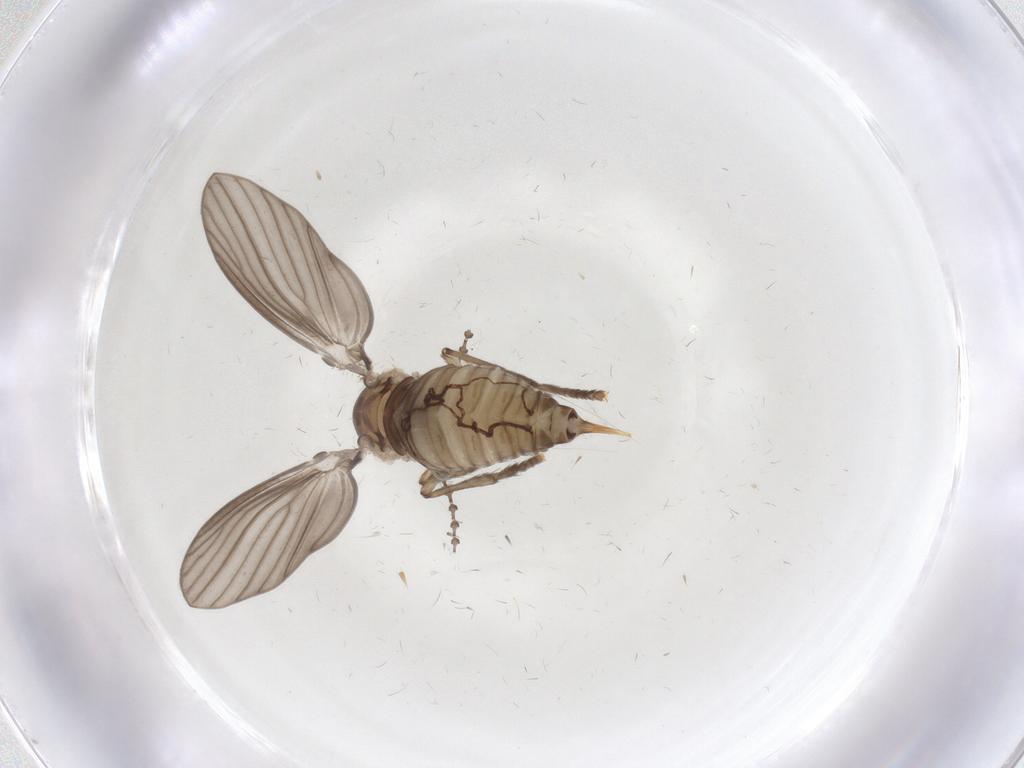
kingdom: Animalia
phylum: Arthropoda
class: Insecta
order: Diptera
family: Psychodidae
